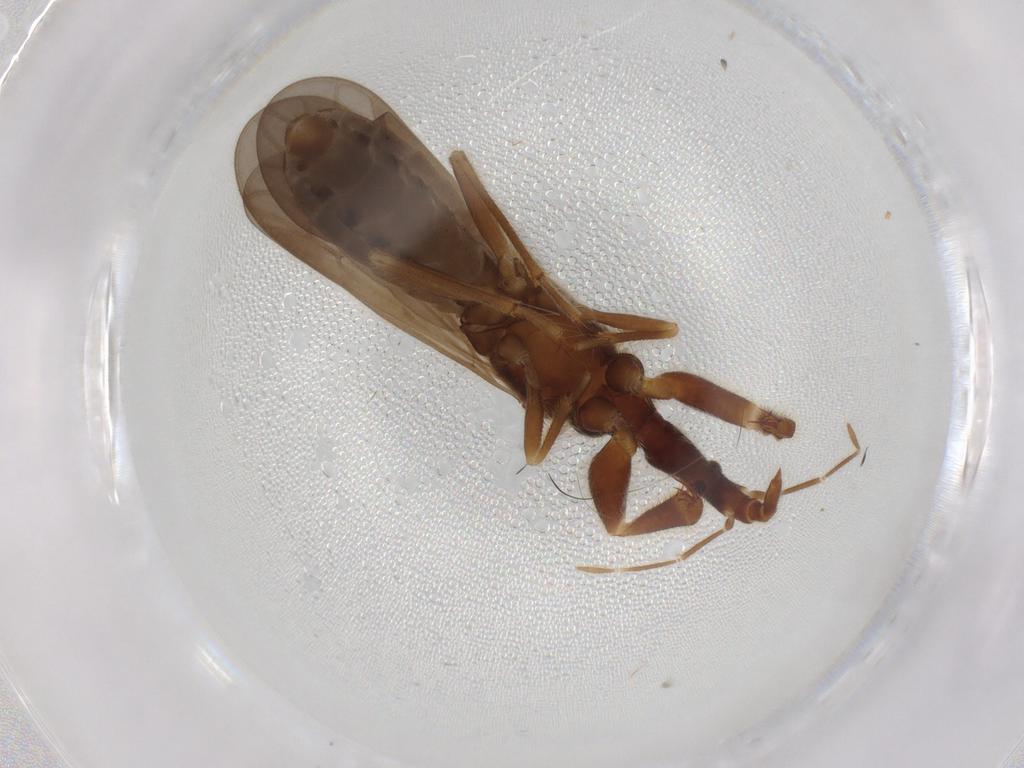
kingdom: Animalia
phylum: Arthropoda
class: Insecta
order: Hemiptera
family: Enicocephalidae
